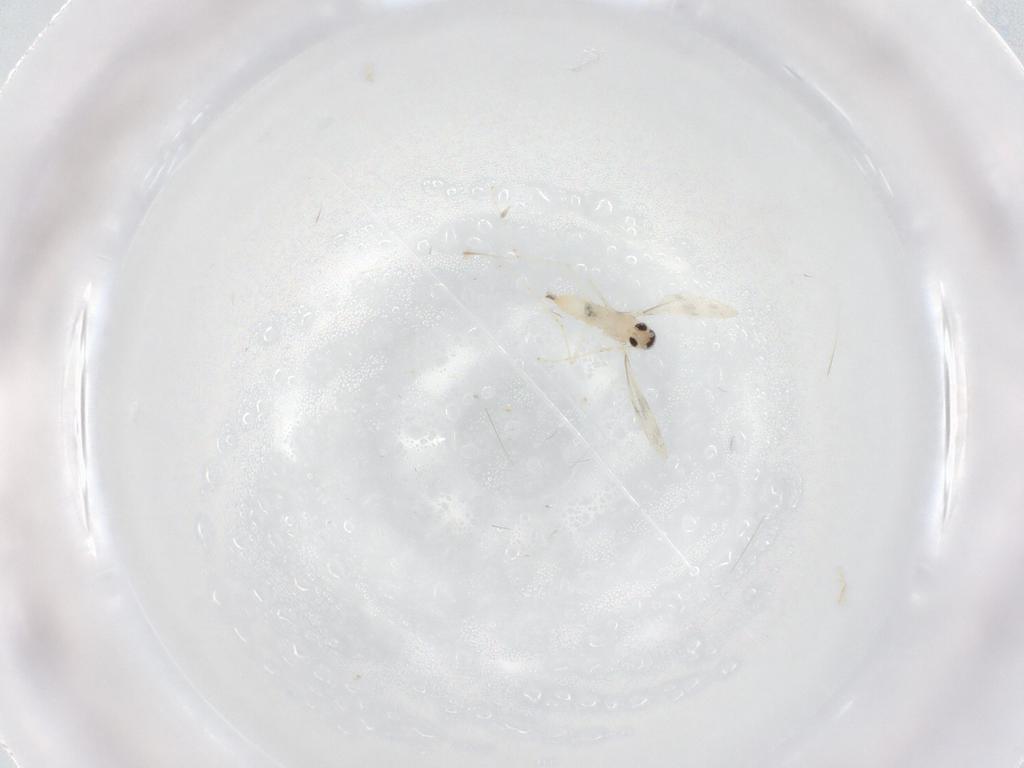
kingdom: Animalia
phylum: Arthropoda
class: Insecta
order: Diptera
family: Cecidomyiidae
